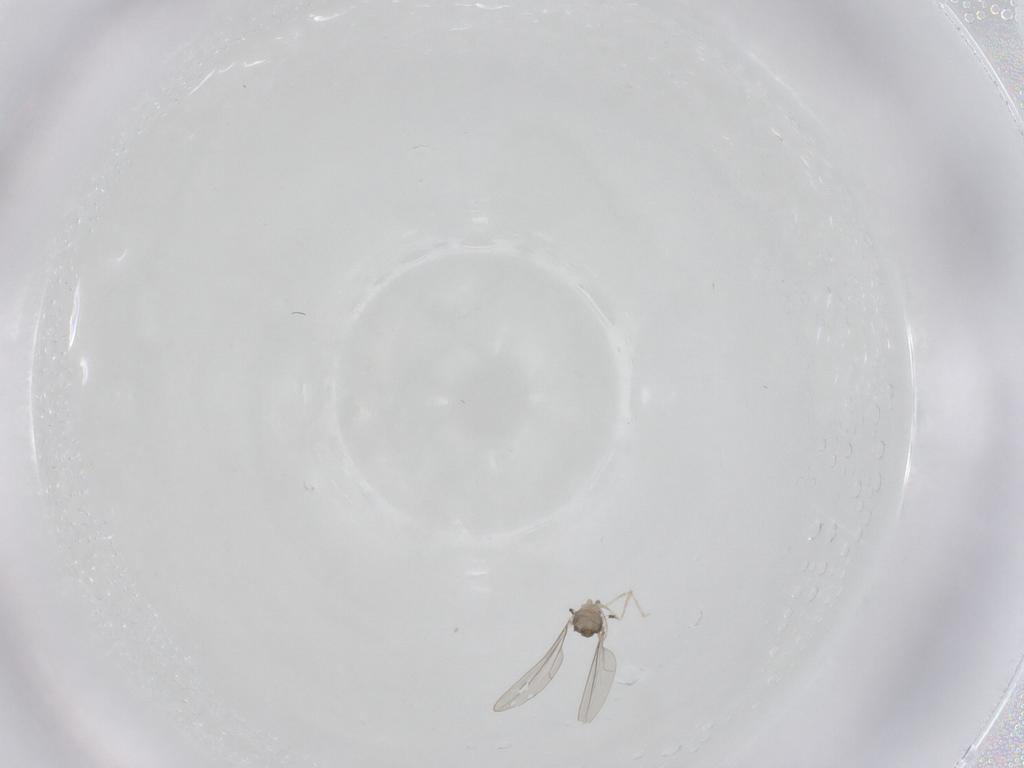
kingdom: Animalia
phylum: Arthropoda
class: Insecta
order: Diptera
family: Cecidomyiidae
